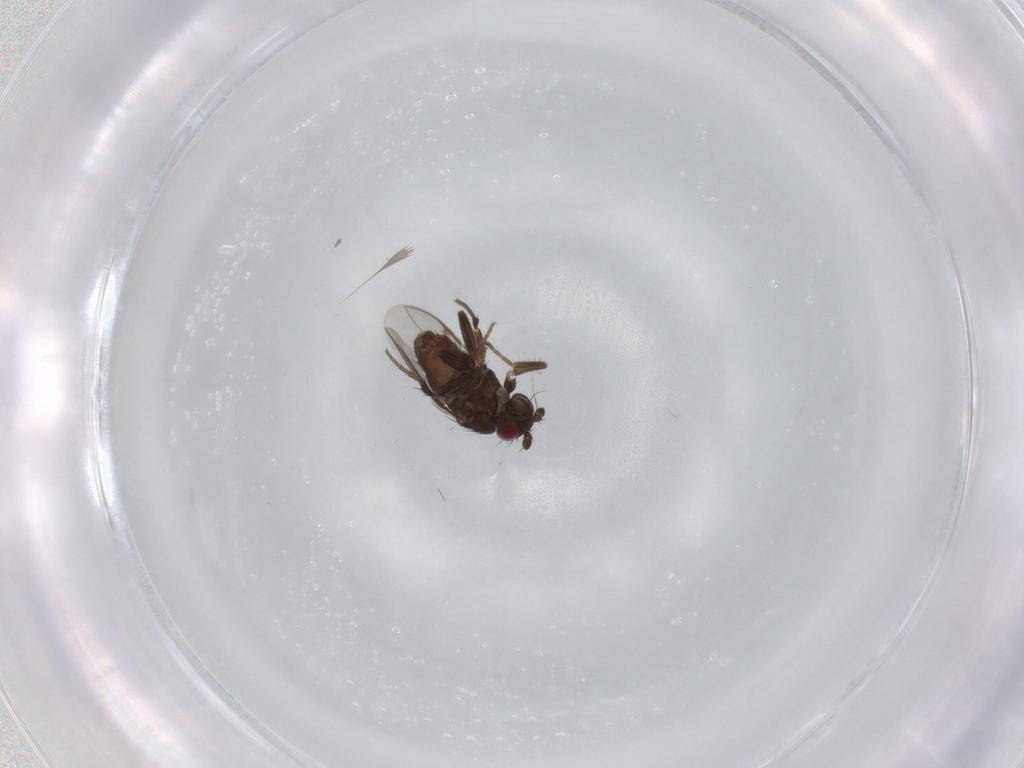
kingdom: Animalia
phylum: Arthropoda
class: Insecta
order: Diptera
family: Sphaeroceridae
